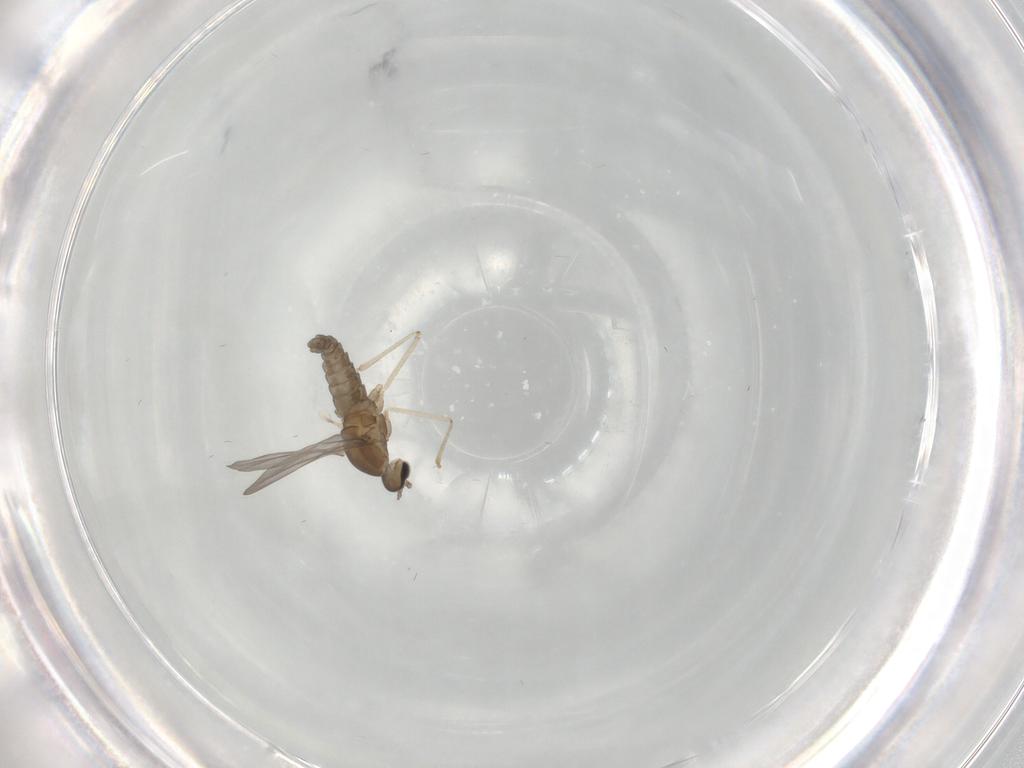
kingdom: Animalia
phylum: Arthropoda
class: Insecta
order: Diptera
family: Cecidomyiidae
